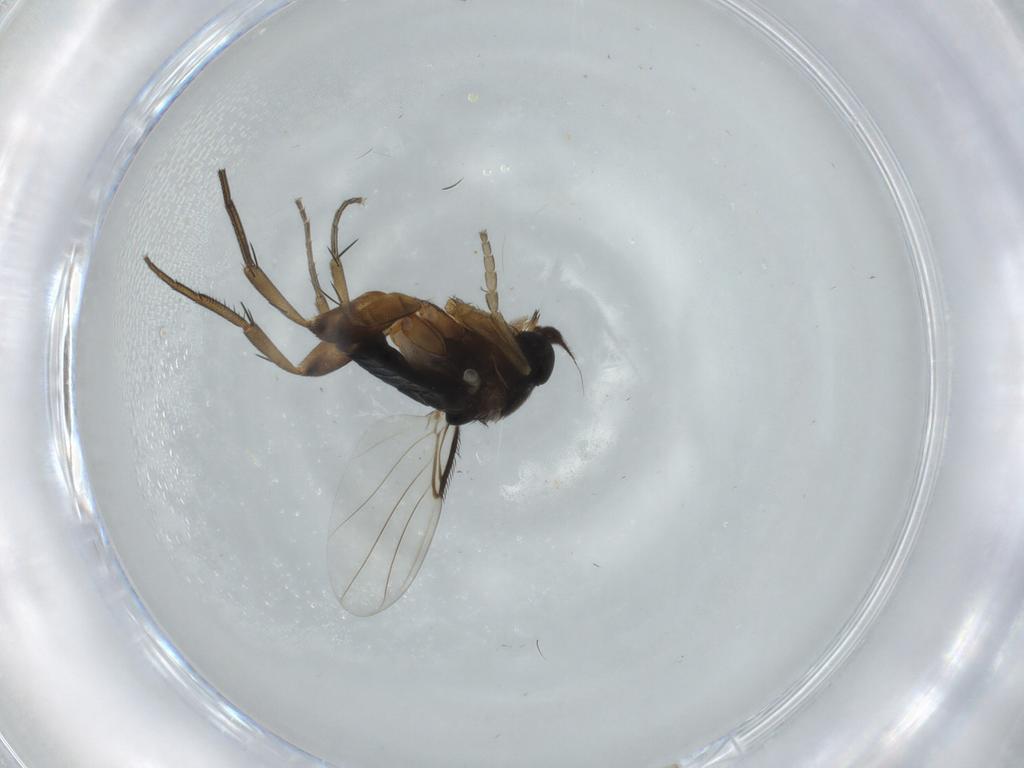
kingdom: Animalia
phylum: Arthropoda
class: Insecta
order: Diptera
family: Phoridae
